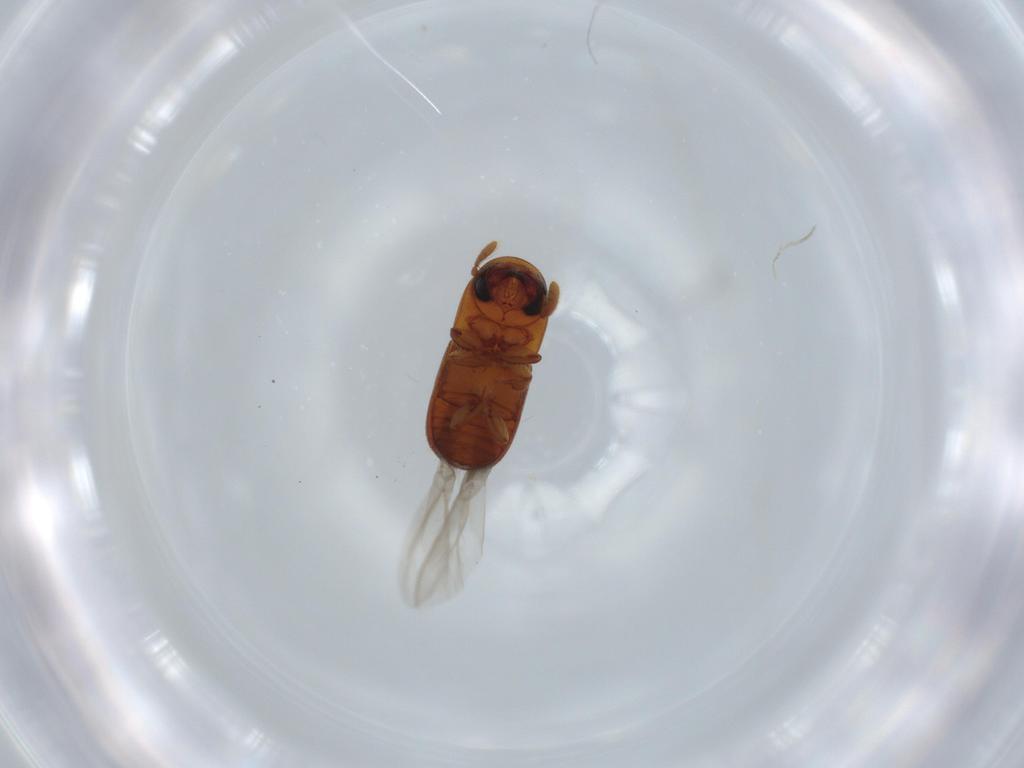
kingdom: Animalia
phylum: Arthropoda
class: Insecta
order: Coleoptera
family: Curculionidae
